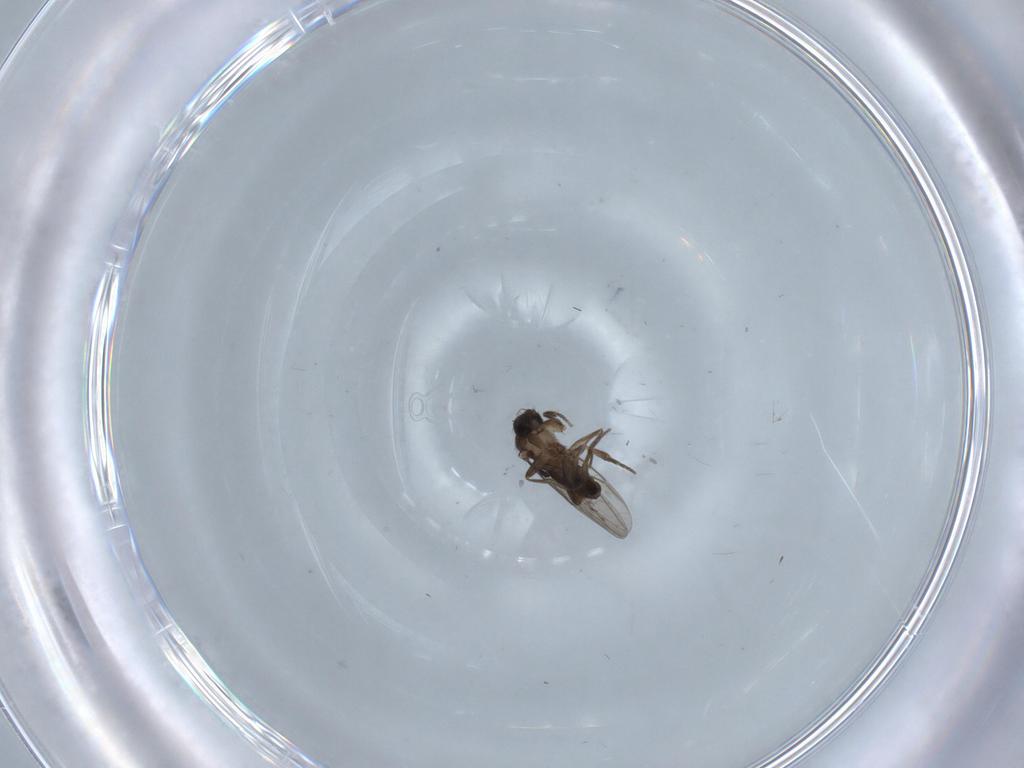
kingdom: Animalia
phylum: Arthropoda
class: Insecta
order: Diptera
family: Phoridae
